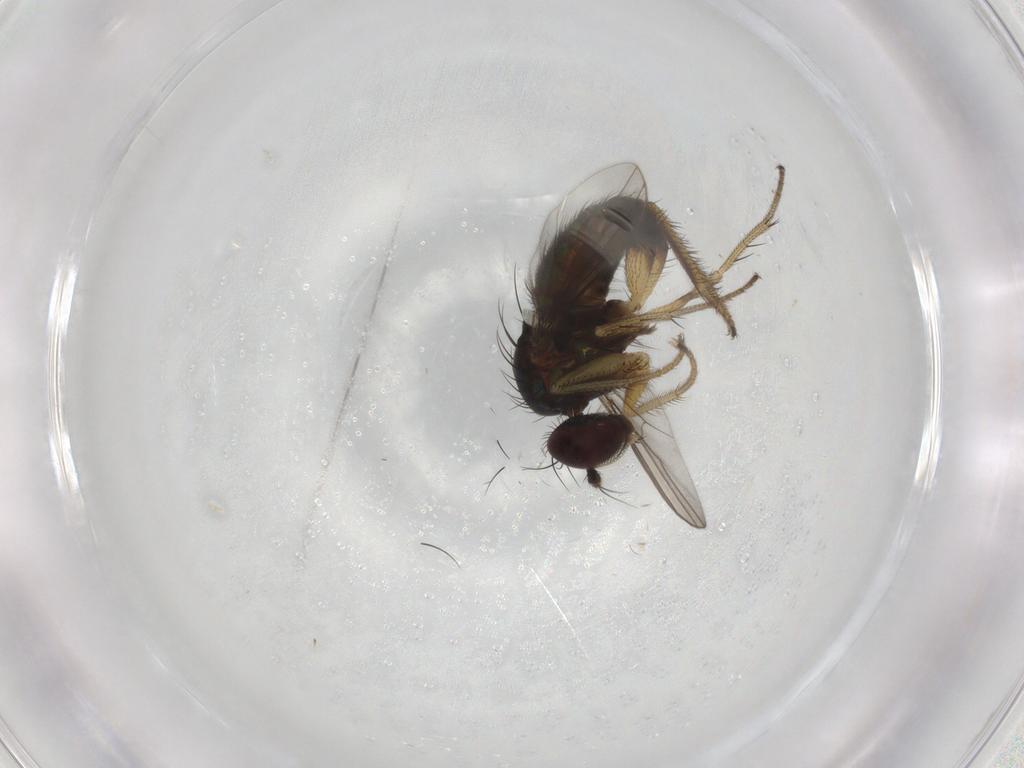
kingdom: Animalia
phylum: Arthropoda
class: Insecta
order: Diptera
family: Dolichopodidae
